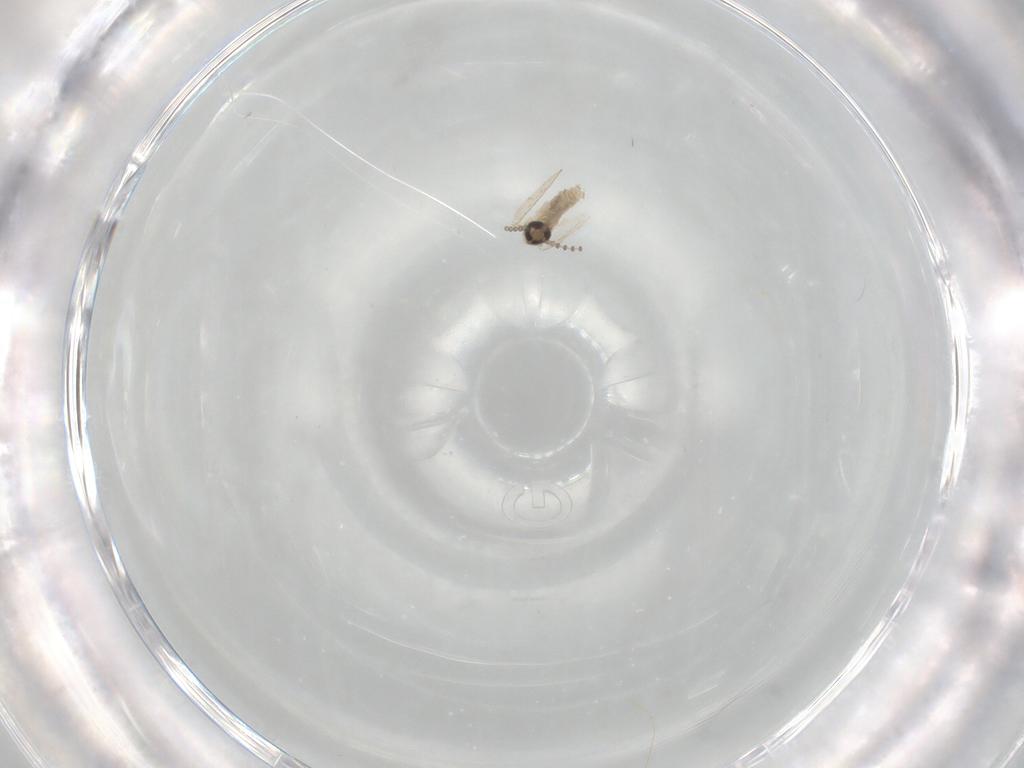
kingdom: Animalia
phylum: Arthropoda
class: Insecta
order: Diptera
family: Psychodidae
